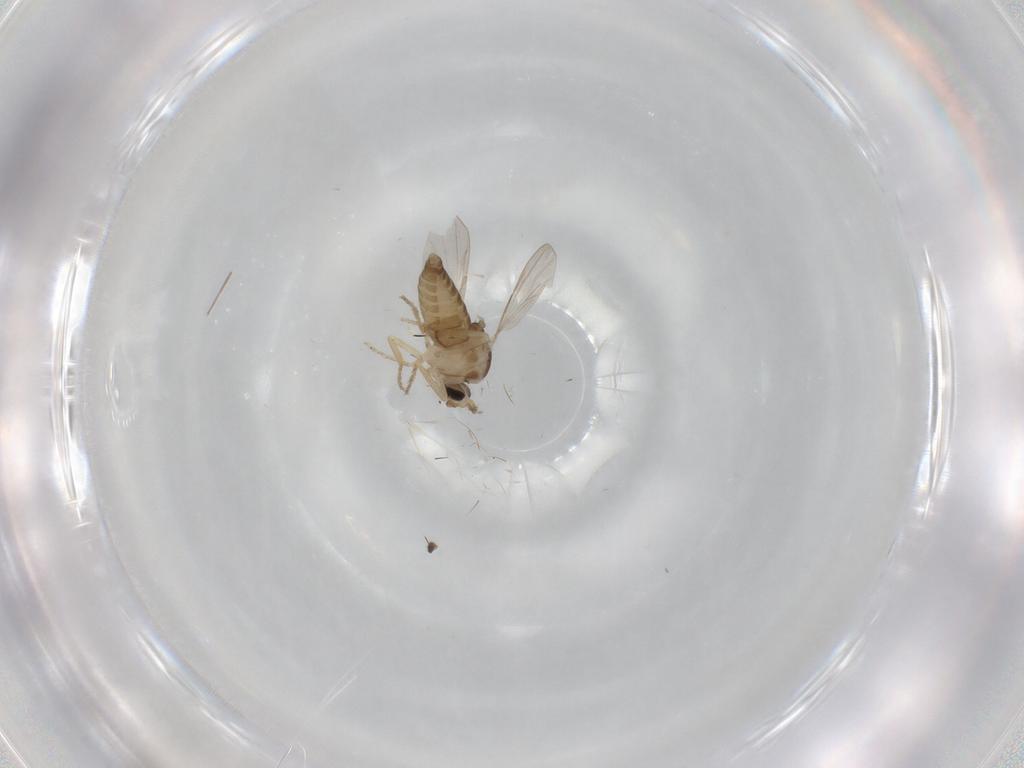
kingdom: Animalia
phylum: Arthropoda
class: Insecta
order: Diptera
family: Ceratopogonidae
